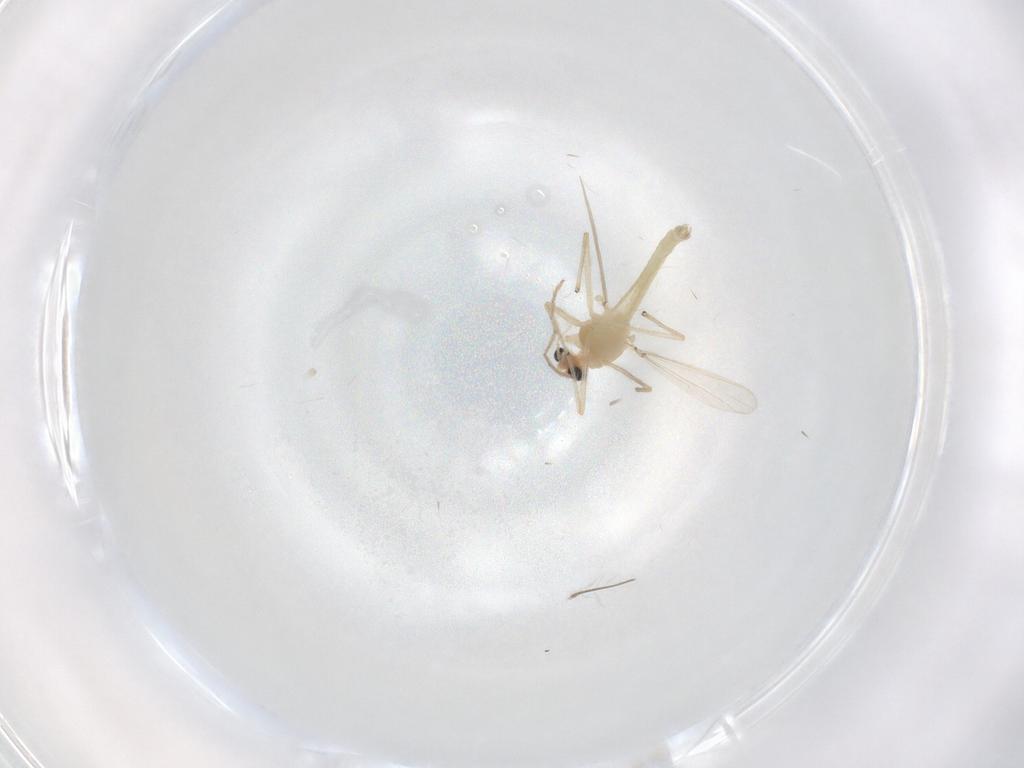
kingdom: Animalia
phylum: Arthropoda
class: Insecta
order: Diptera
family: Chironomidae
